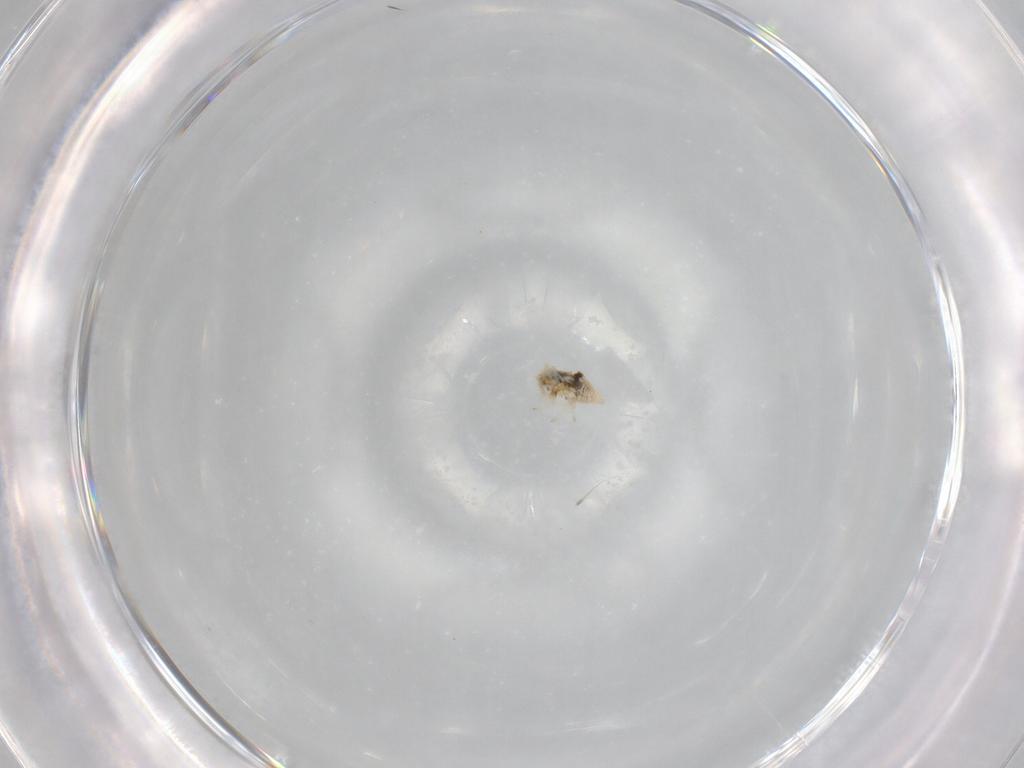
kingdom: Animalia
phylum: Arthropoda
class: Insecta
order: Neuroptera
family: Coniopterygidae
